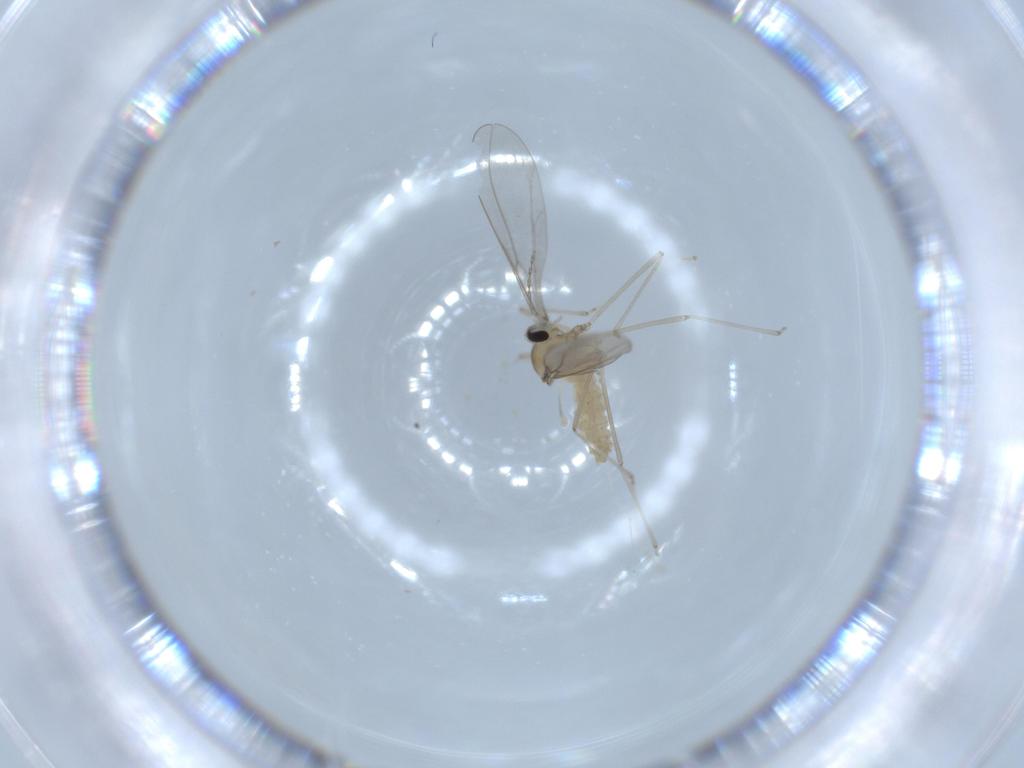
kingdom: Animalia
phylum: Arthropoda
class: Insecta
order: Diptera
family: Cecidomyiidae
